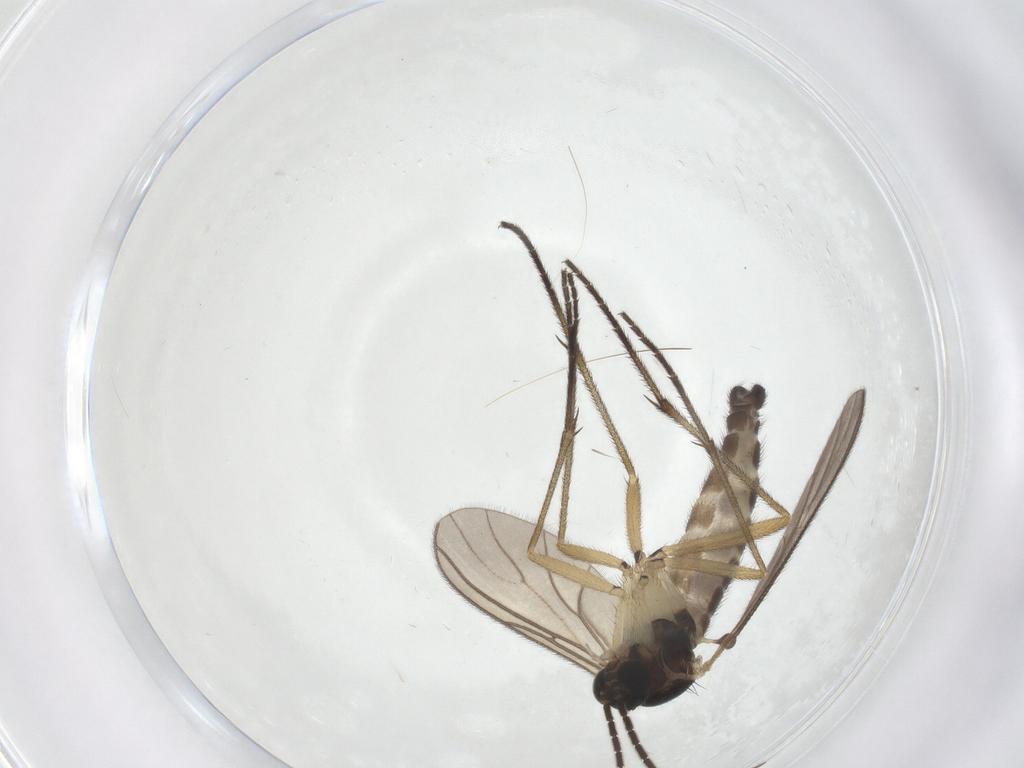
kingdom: Animalia
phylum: Arthropoda
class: Insecta
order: Diptera
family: Sciaridae
